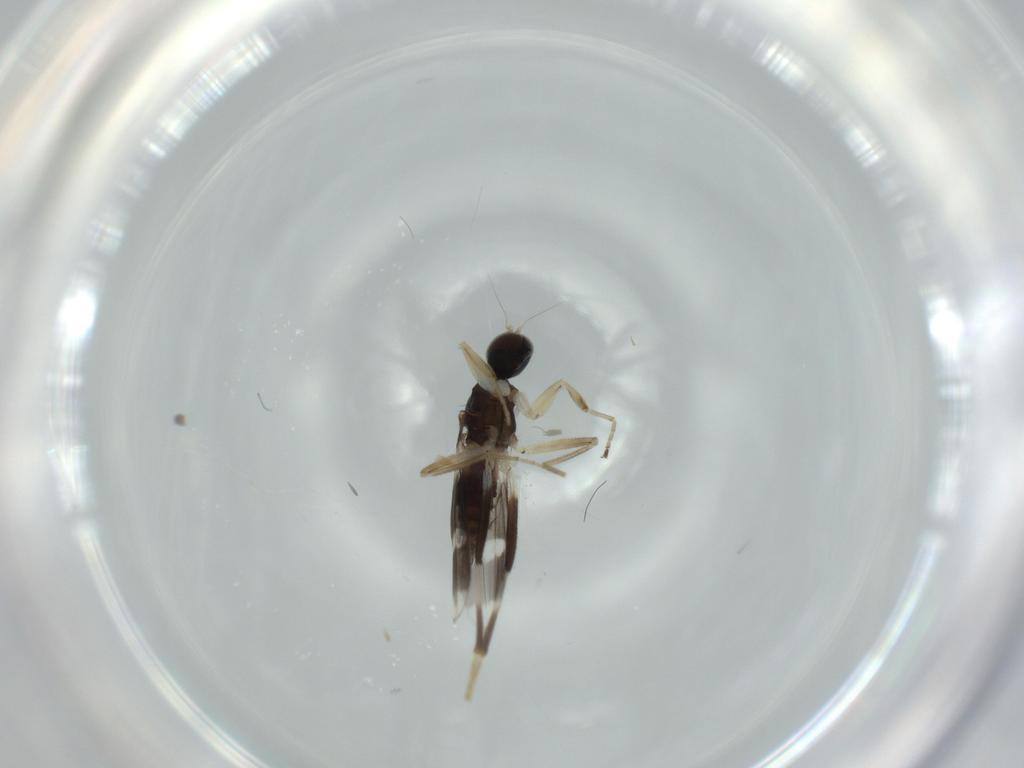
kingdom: Animalia
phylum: Arthropoda
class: Insecta
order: Diptera
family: Hybotidae
